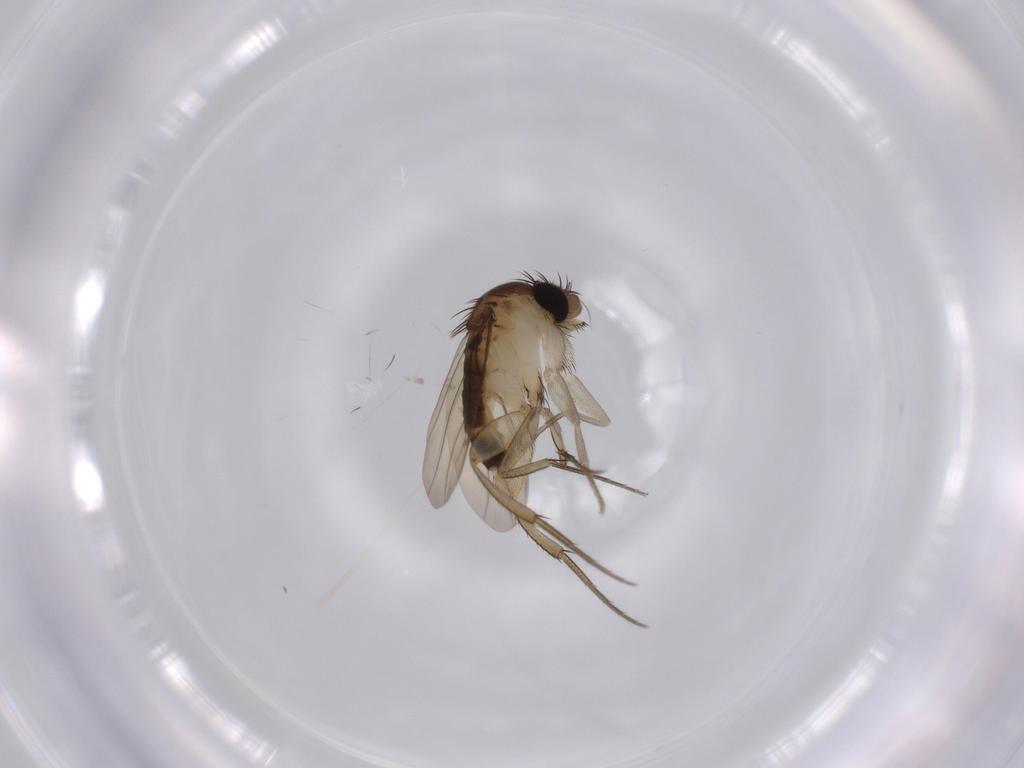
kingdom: Animalia
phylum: Arthropoda
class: Insecta
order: Diptera
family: Phoridae
